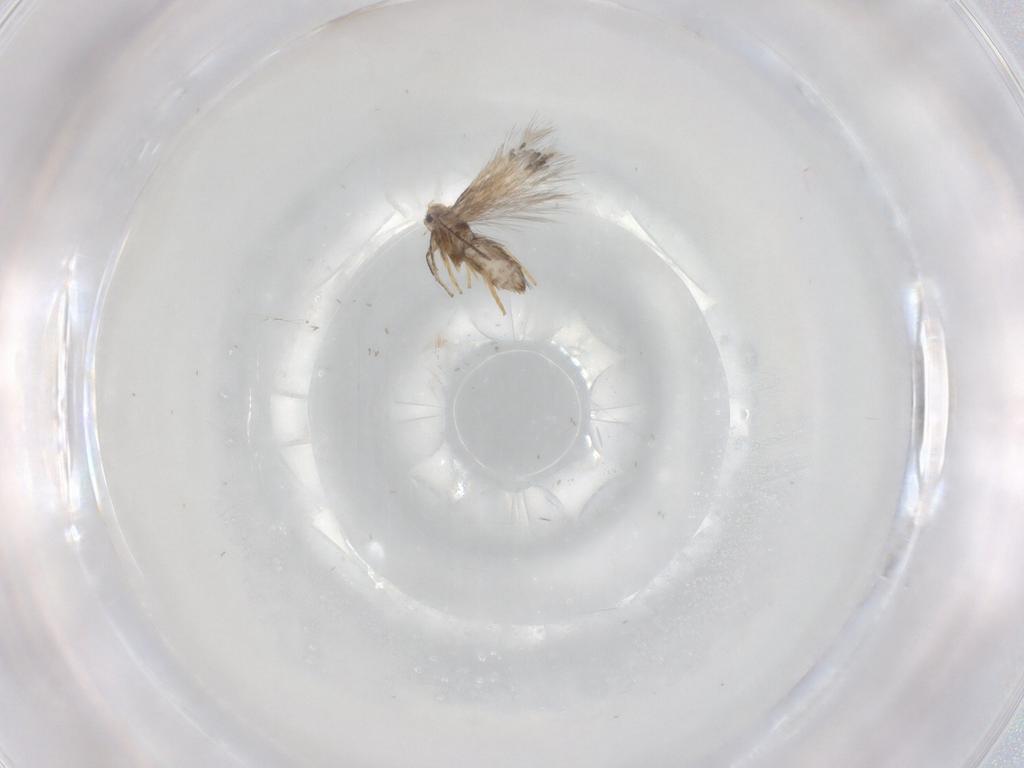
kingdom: Animalia
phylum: Arthropoda
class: Insecta
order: Lepidoptera
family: Nepticulidae
